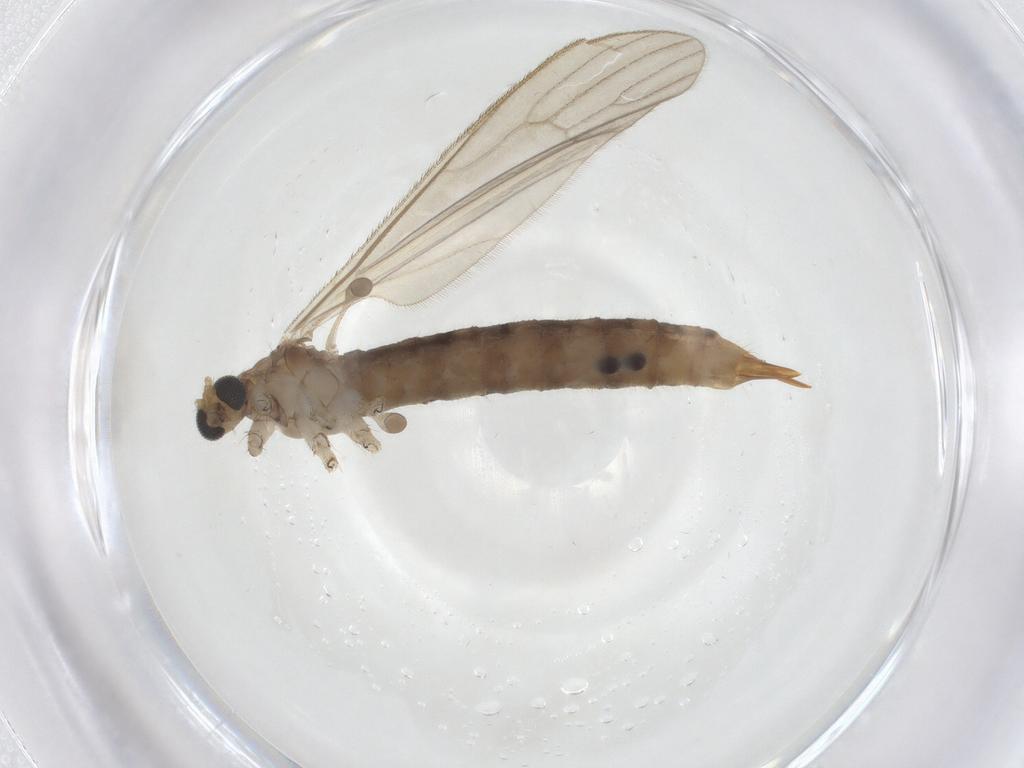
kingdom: Animalia
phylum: Arthropoda
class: Insecta
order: Diptera
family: Limoniidae
